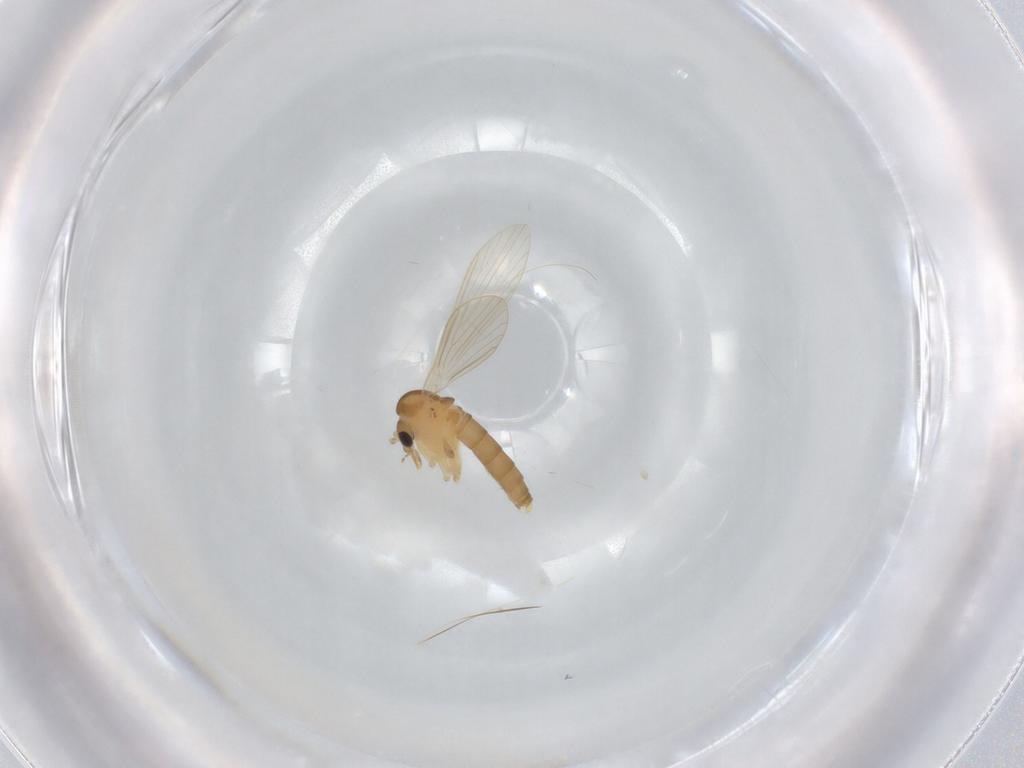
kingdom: Animalia
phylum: Arthropoda
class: Insecta
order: Diptera
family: Psychodidae
